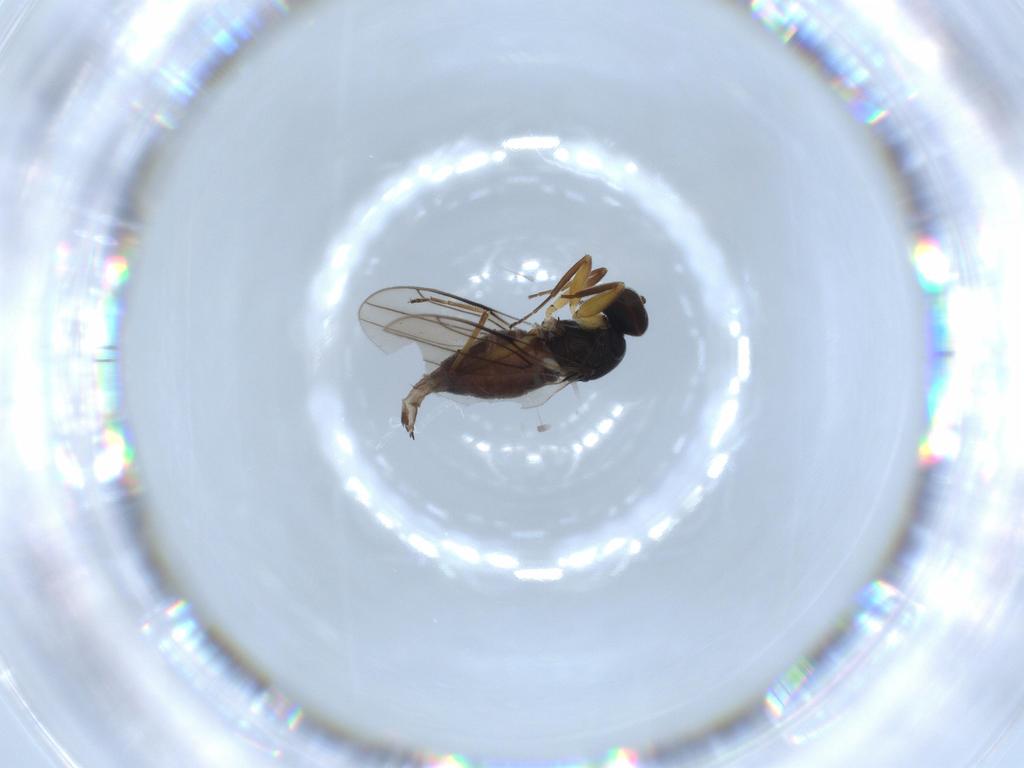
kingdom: Animalia
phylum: Arthropoda
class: Insecta
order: Diptera
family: Hybotidae
